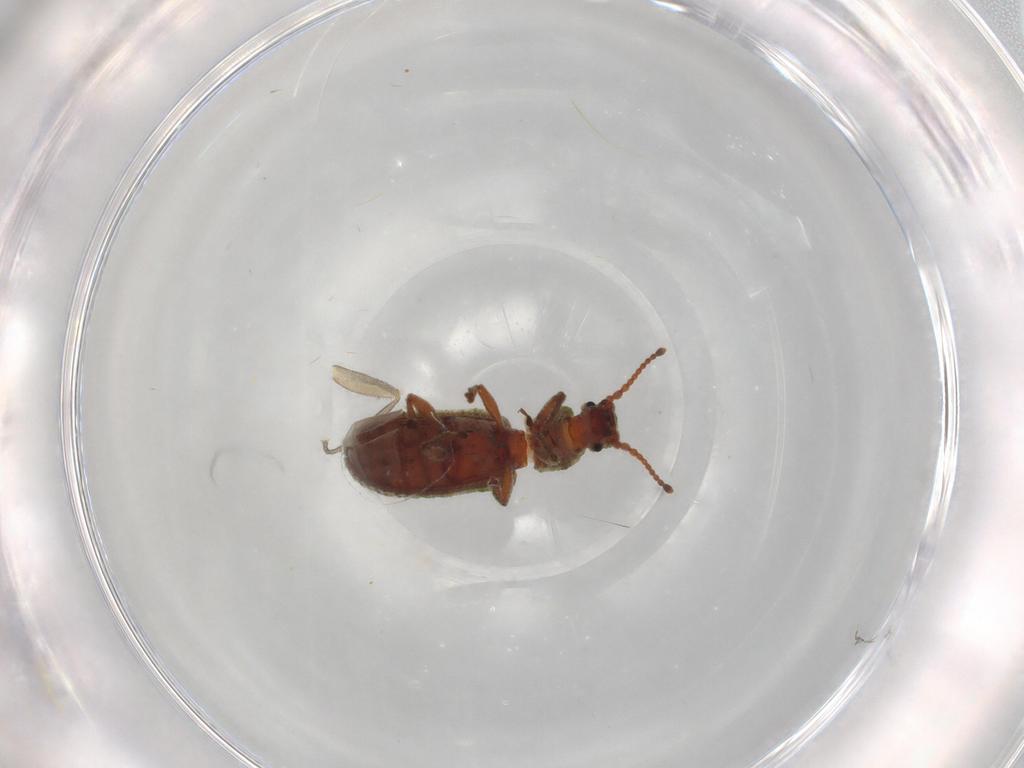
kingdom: Animalia
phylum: Arthropoda
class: Insecta
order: Coleoptera
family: Zopheridae
